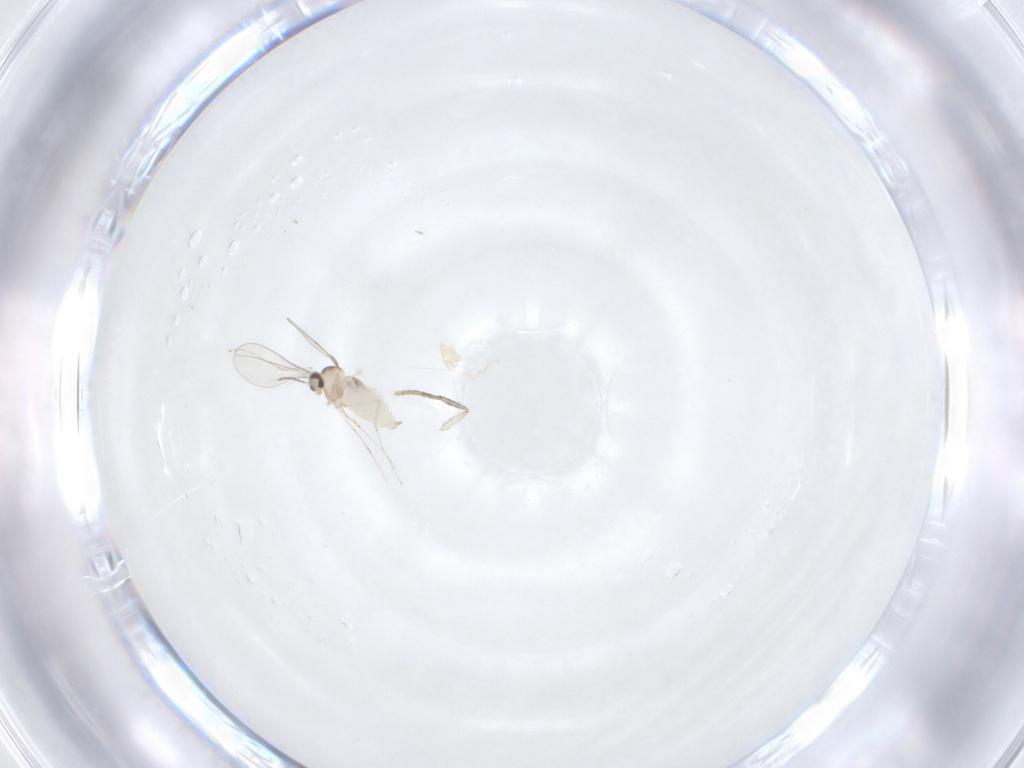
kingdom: Animalia
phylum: Arthropoda
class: Insecta
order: Diptera
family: Cecidomyiidae
